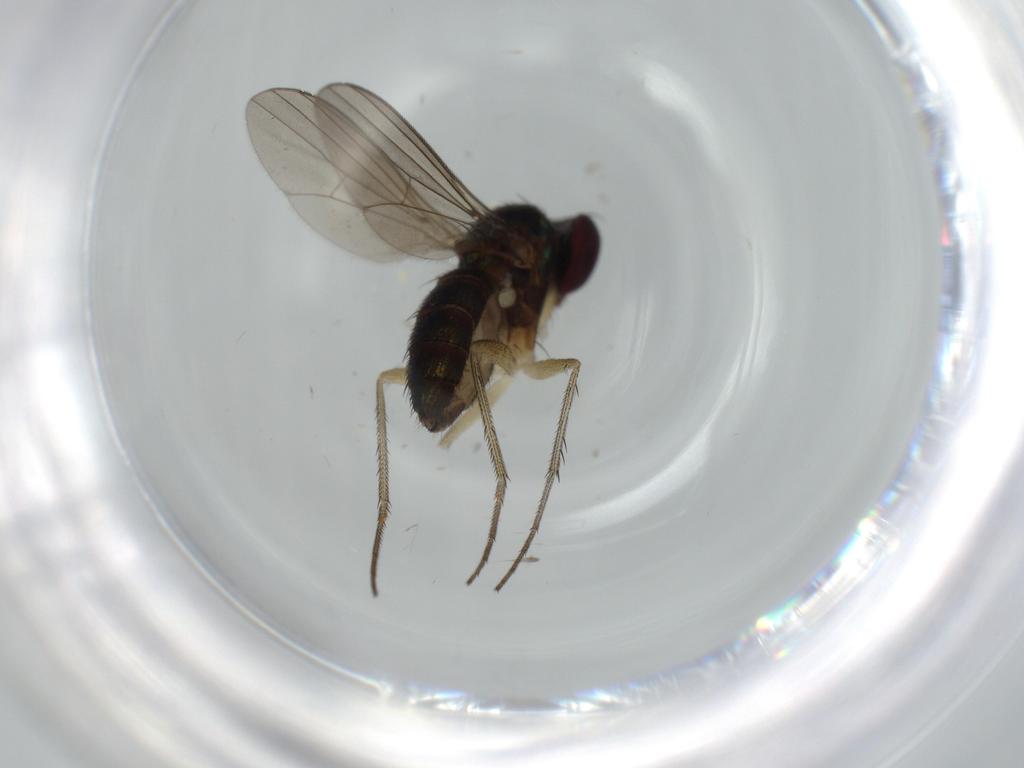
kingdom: Animalia
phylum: Arthropoda
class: Insecta
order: Diptera
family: Dolichopodidae
